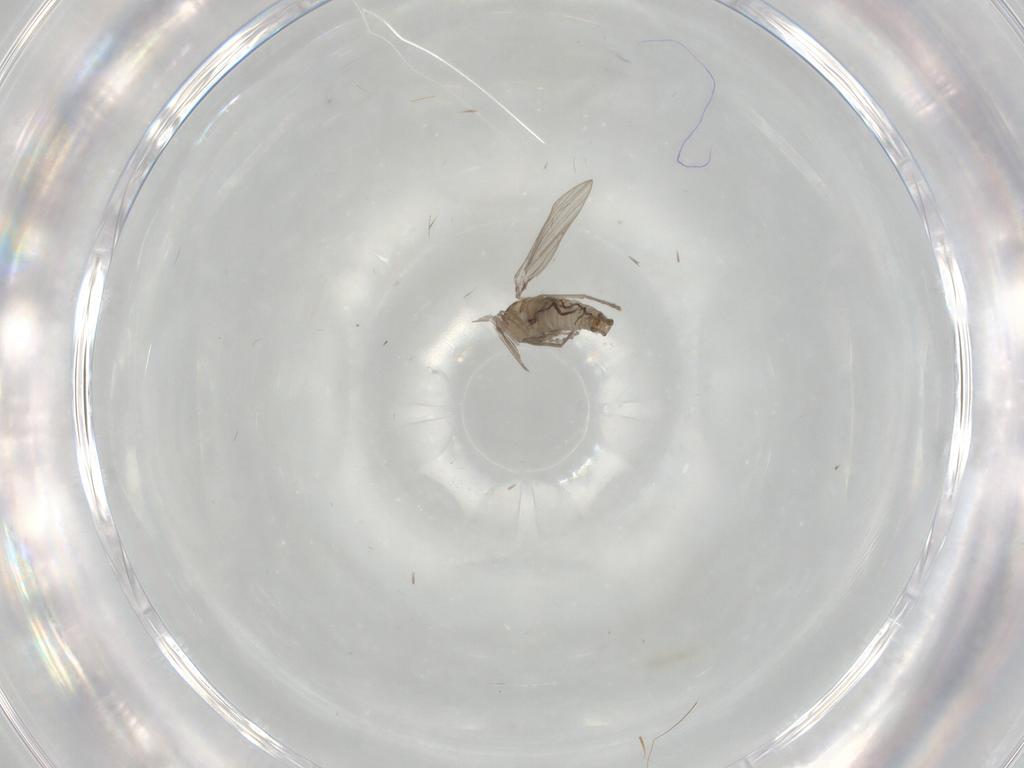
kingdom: Animalia
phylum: Arthropoda
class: Insecta
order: Diptera
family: Psychodidae
